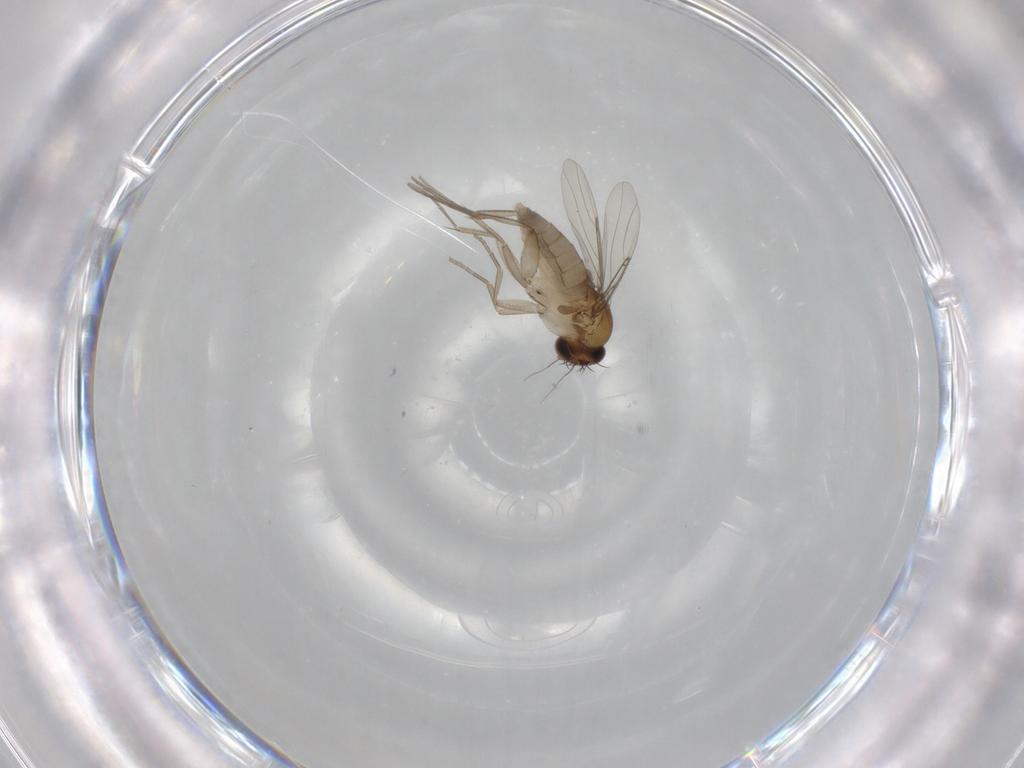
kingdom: Animalia
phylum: Arthropoda
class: Insecta
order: Diptera
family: Phoridae
